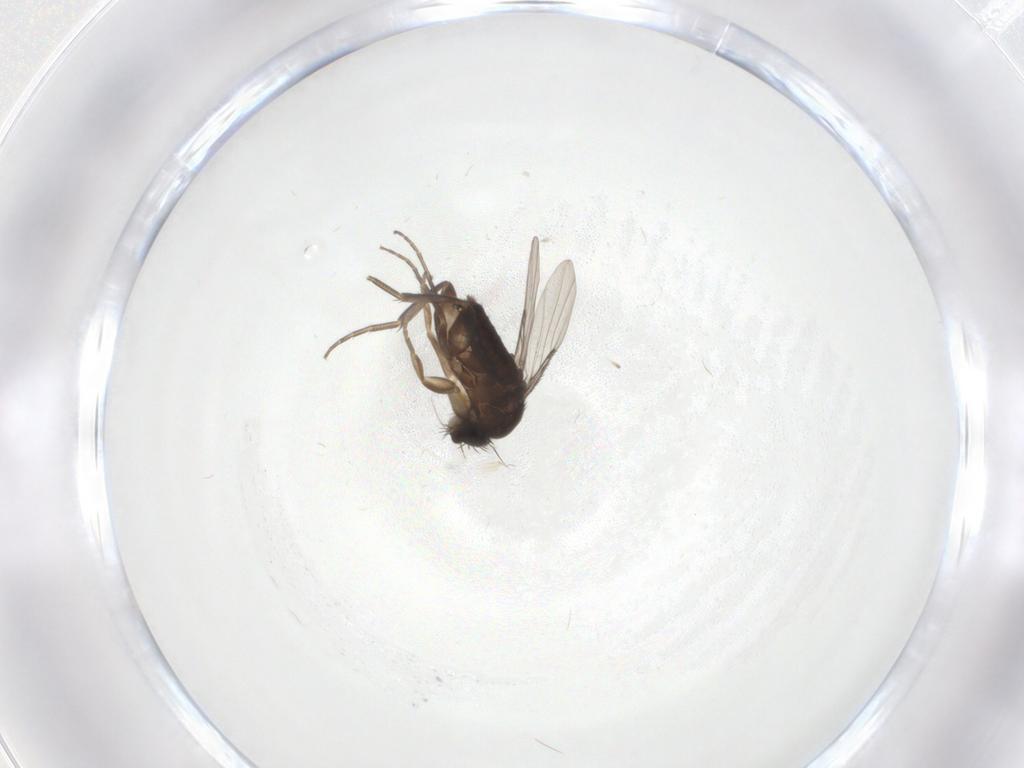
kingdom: Animalia
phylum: Arthropoda
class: Insecta
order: Diptera
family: Phoridae
